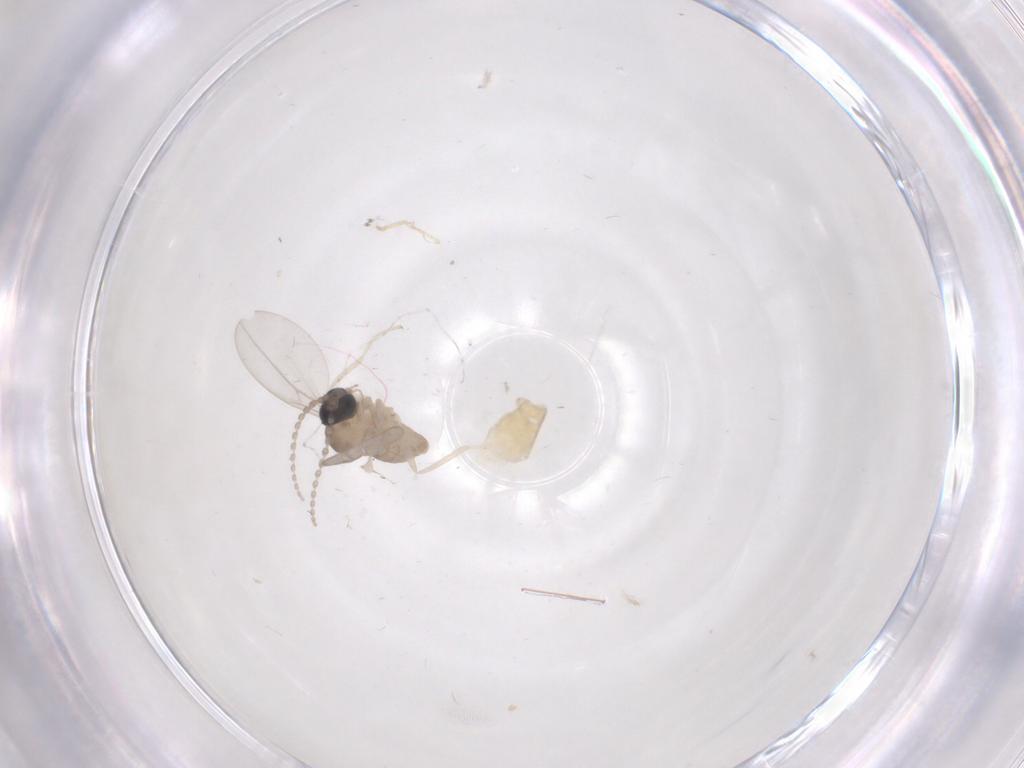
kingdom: Animalia
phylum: Arthropoda
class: Insecta
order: Diptera
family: Cecidomyiidae
